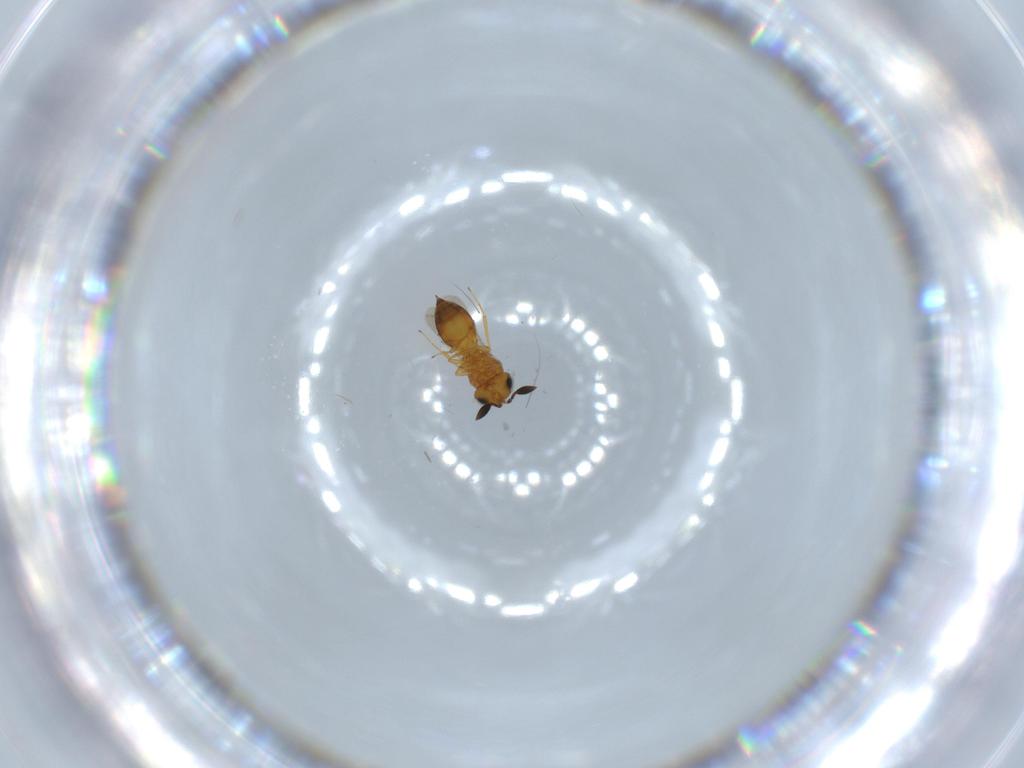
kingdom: Animalia
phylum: Arthropoda
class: Insecta
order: Hymenoptera
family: Scelionidae
